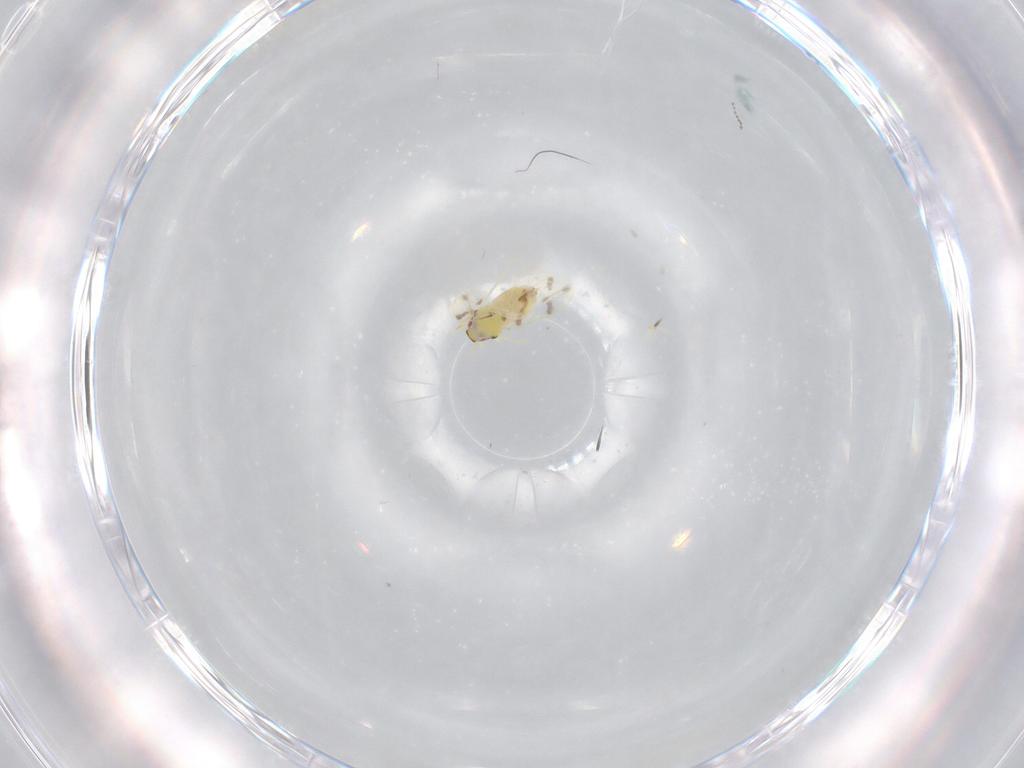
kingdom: Animalia
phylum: Arthropoda
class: Insecta
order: Hemiptera
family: Aleyrodidae
